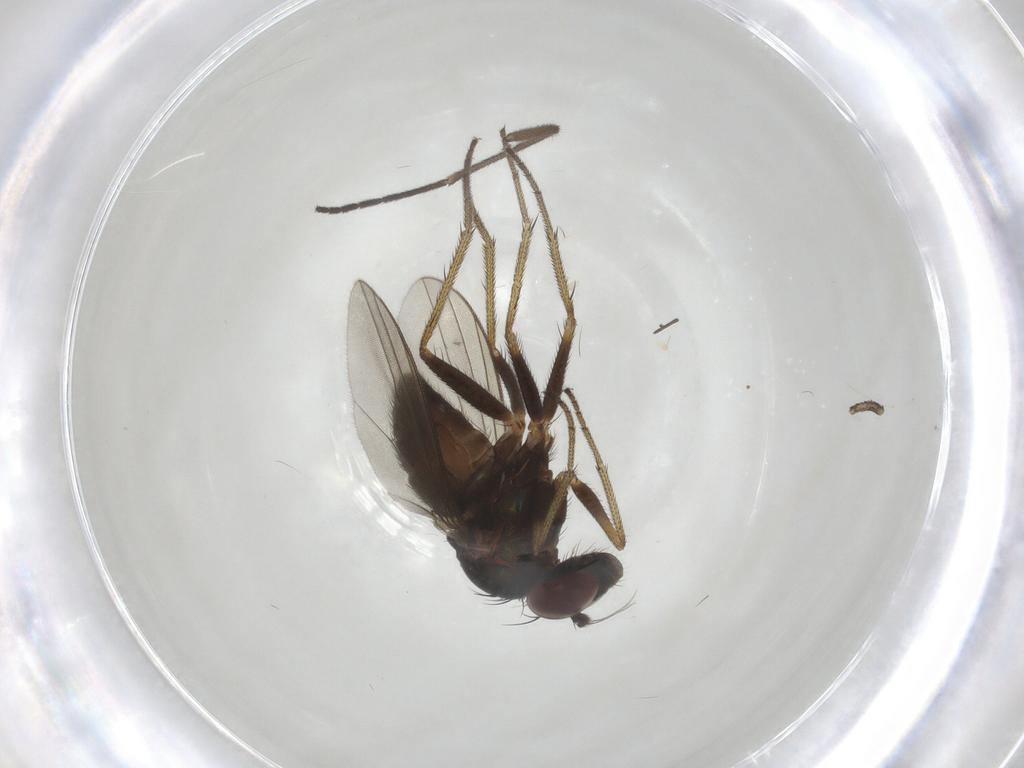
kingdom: Animalia
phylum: Arthropoda
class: Insecta
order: Diptera
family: Sciaridae
